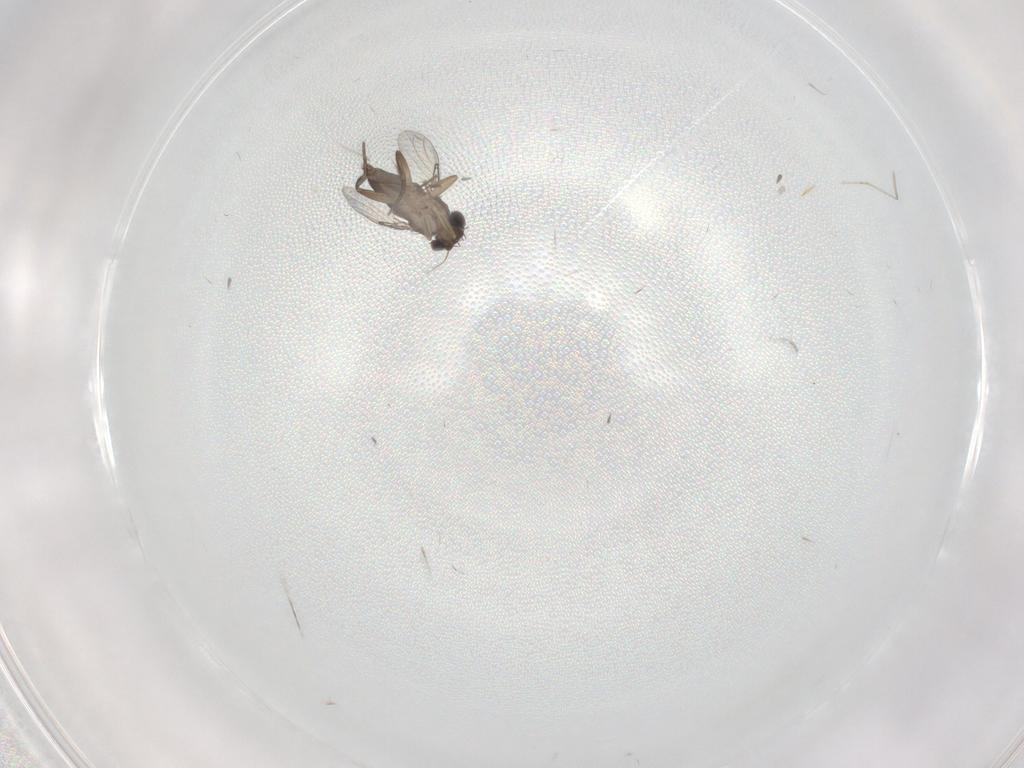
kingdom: Animalia
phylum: Arthropoda
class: Insecta
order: Diptera
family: Phoridae
